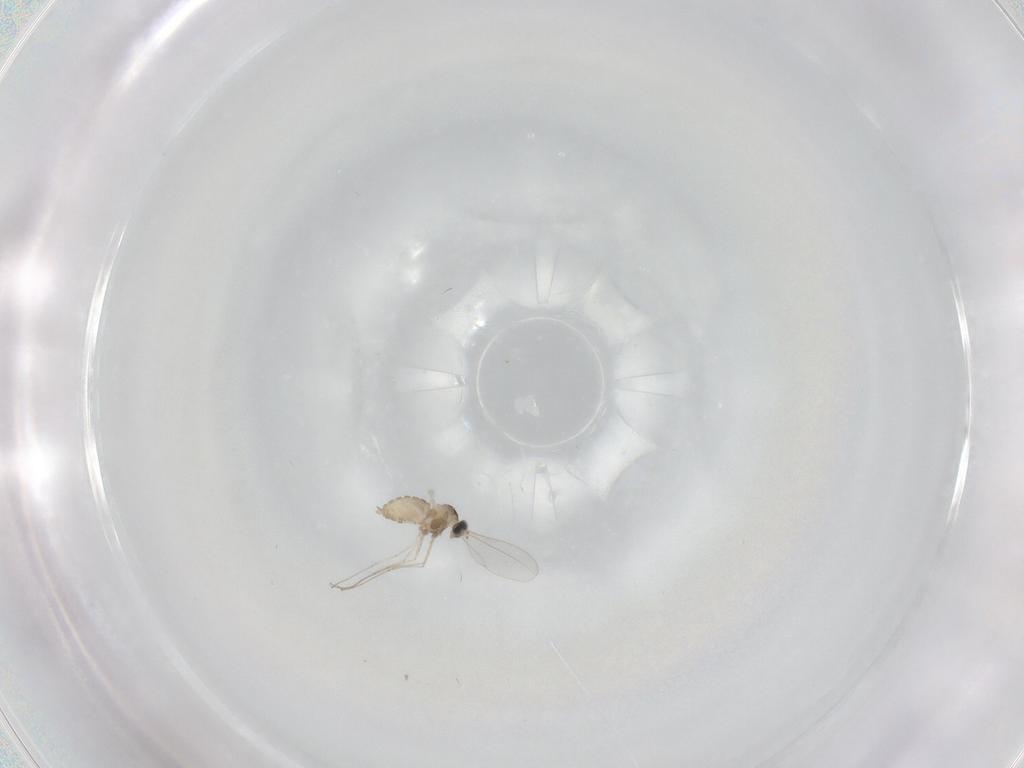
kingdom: Animalia
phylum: Arthropoda
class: Insecta
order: Diptera
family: Cecidomyiidae
